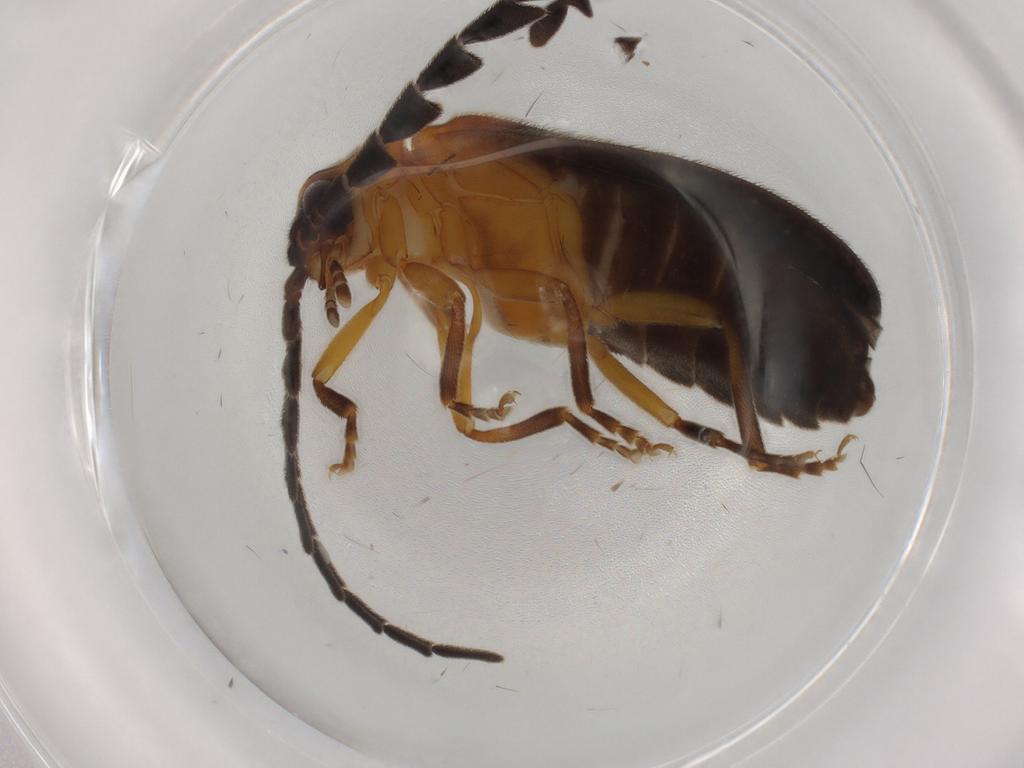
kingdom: Animalia
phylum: Arthropoda
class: Insecta
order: Coleoptera
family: Lampyridae
